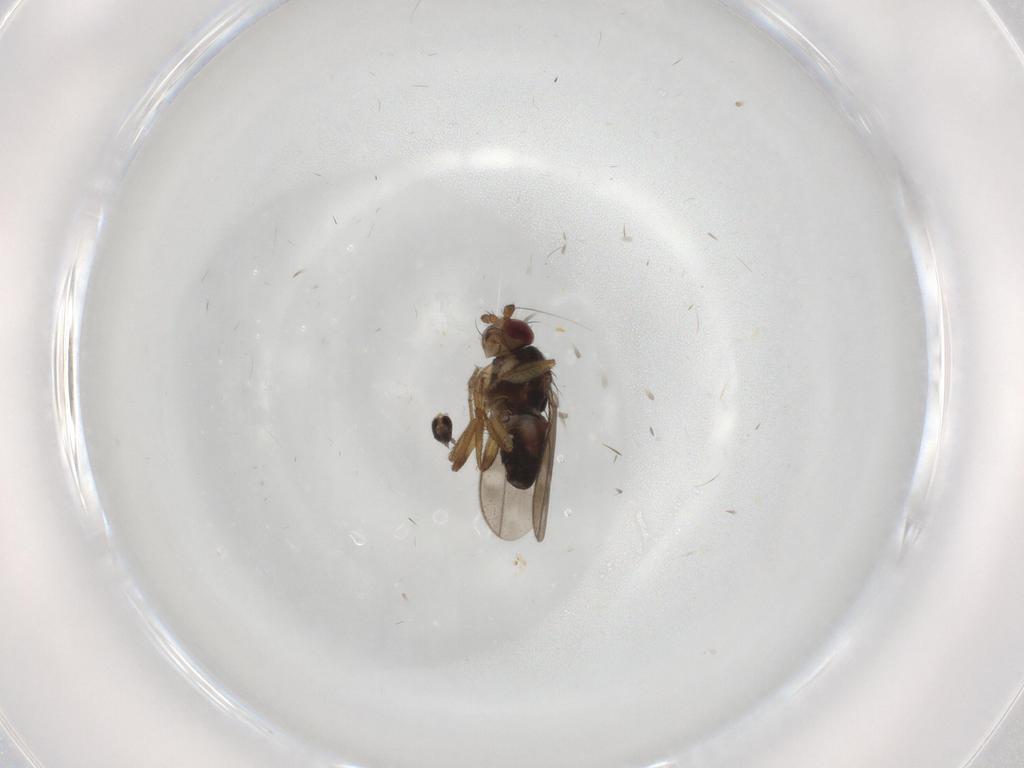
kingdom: Animalia
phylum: Arthropoda
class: Insecta
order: Diptera
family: Sphaeroceridae
